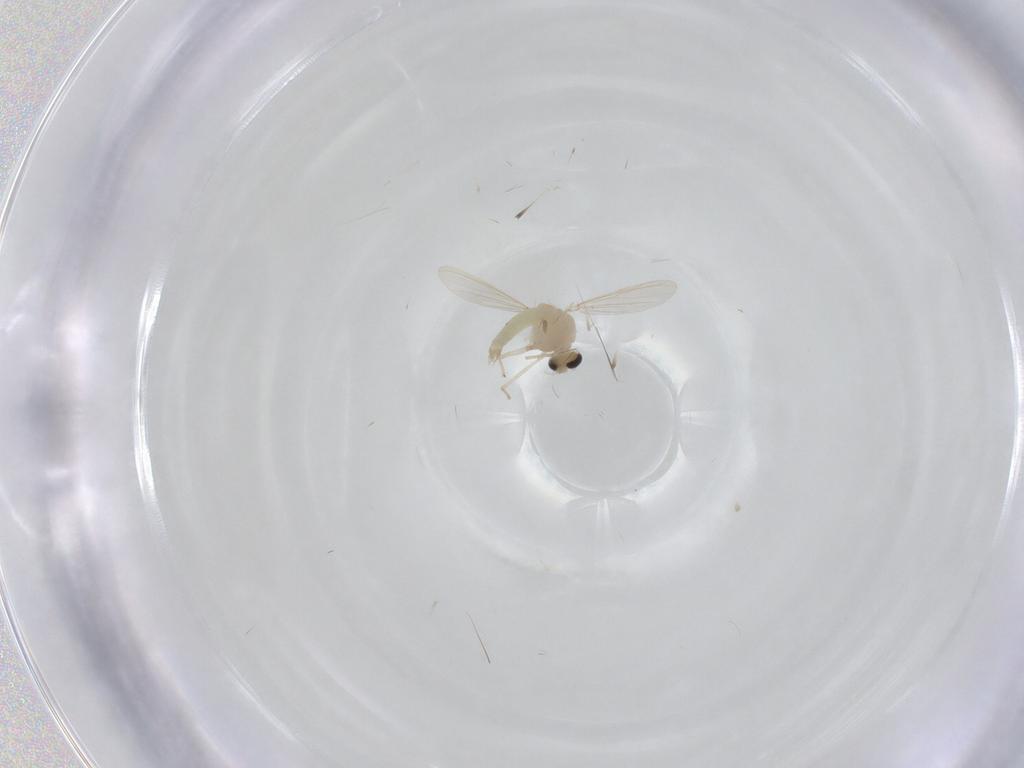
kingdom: Animalia
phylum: Arthropoda
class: Insecta
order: Diptera
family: Chironomidae
